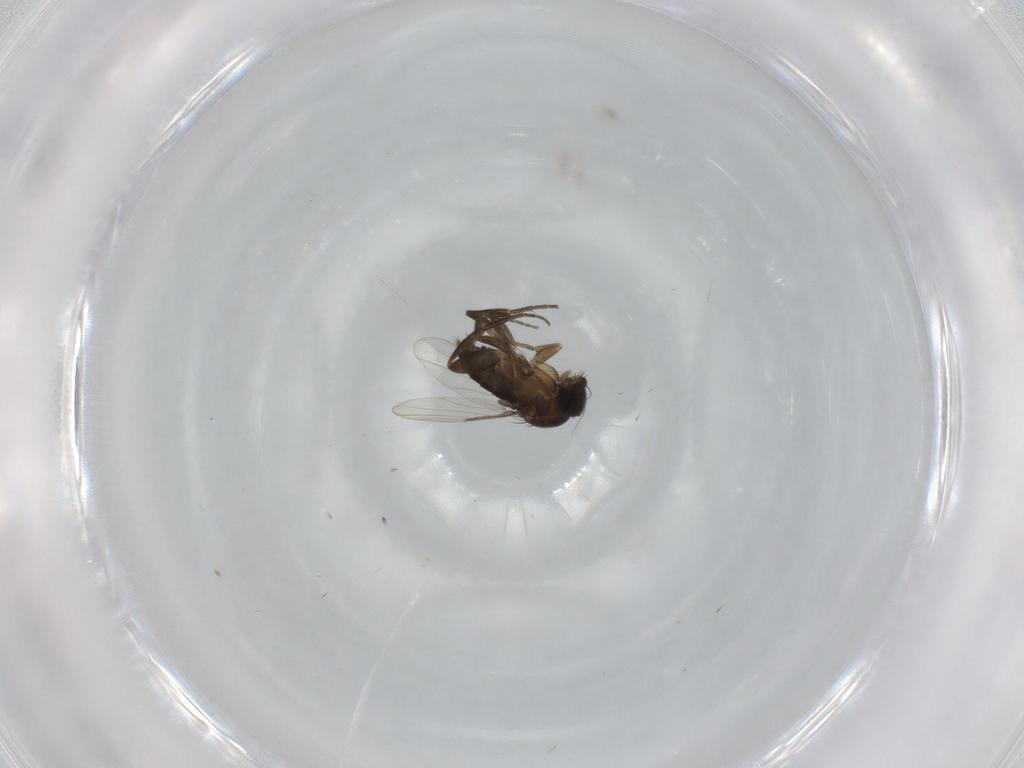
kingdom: Animalia
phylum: Arthropoda
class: Insecta
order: Diptera
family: Phoridae
